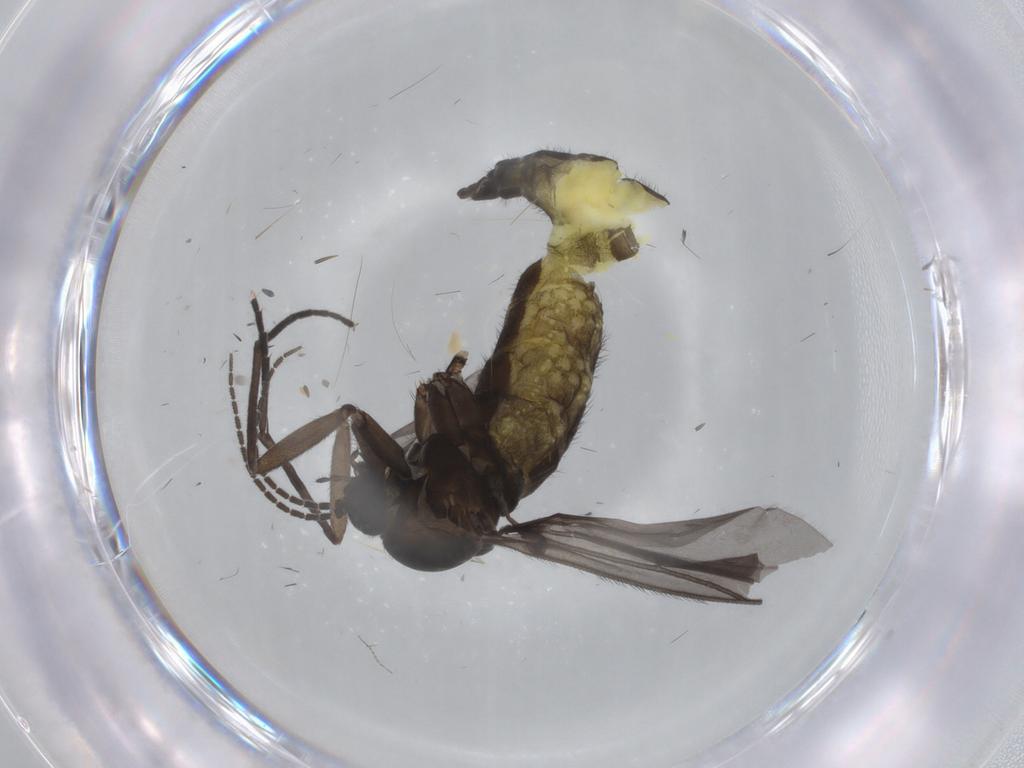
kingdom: Animalia
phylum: Arthropoda
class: Insecta
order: Diptera
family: Sciaridae
